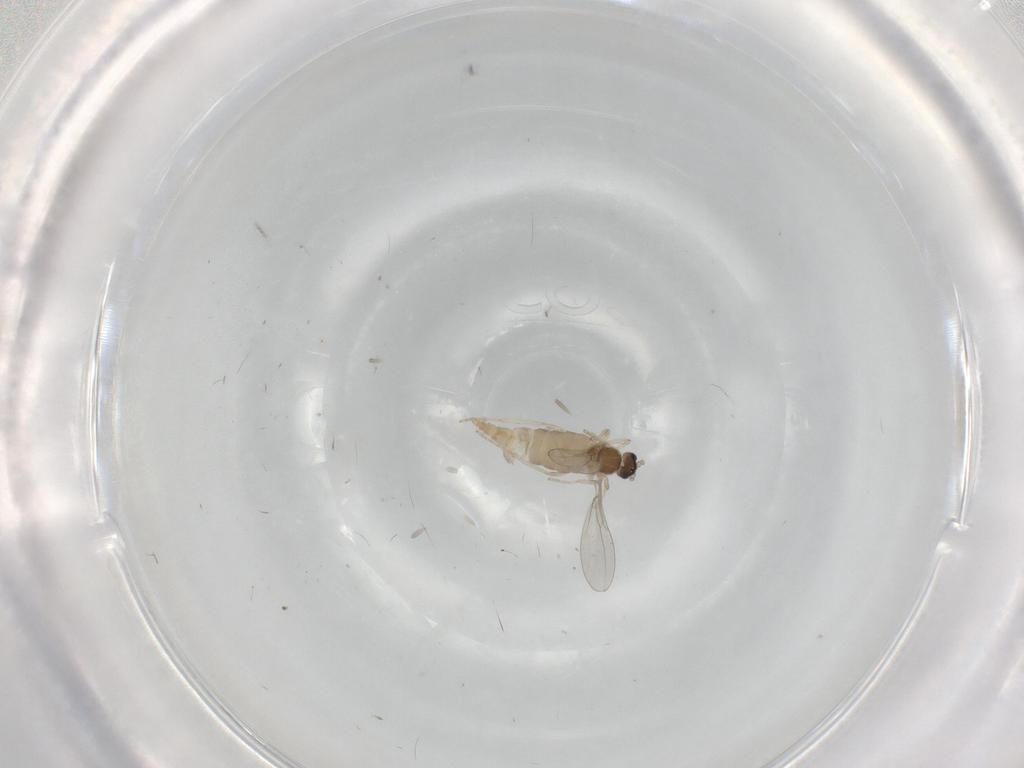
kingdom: Animalia
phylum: Arthropoda
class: Insecta
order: Diptera
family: Cecidomyiidae
